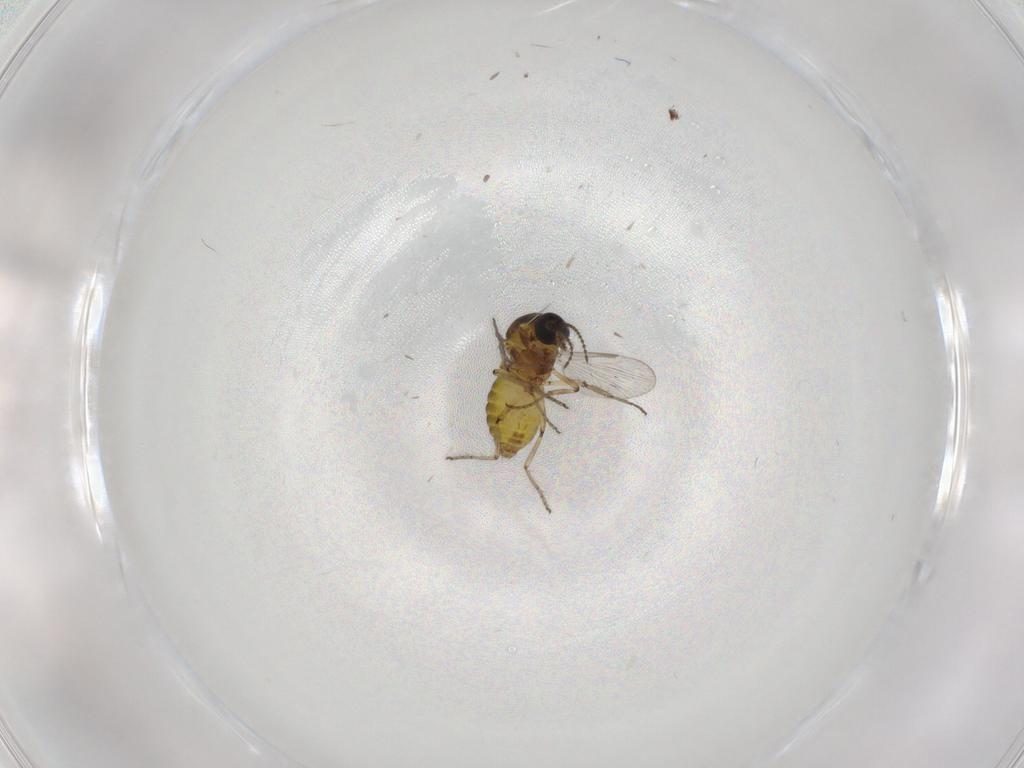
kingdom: Animalia
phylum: Arthropoda
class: Insecta
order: Diptera
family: Ceratopogonidae
